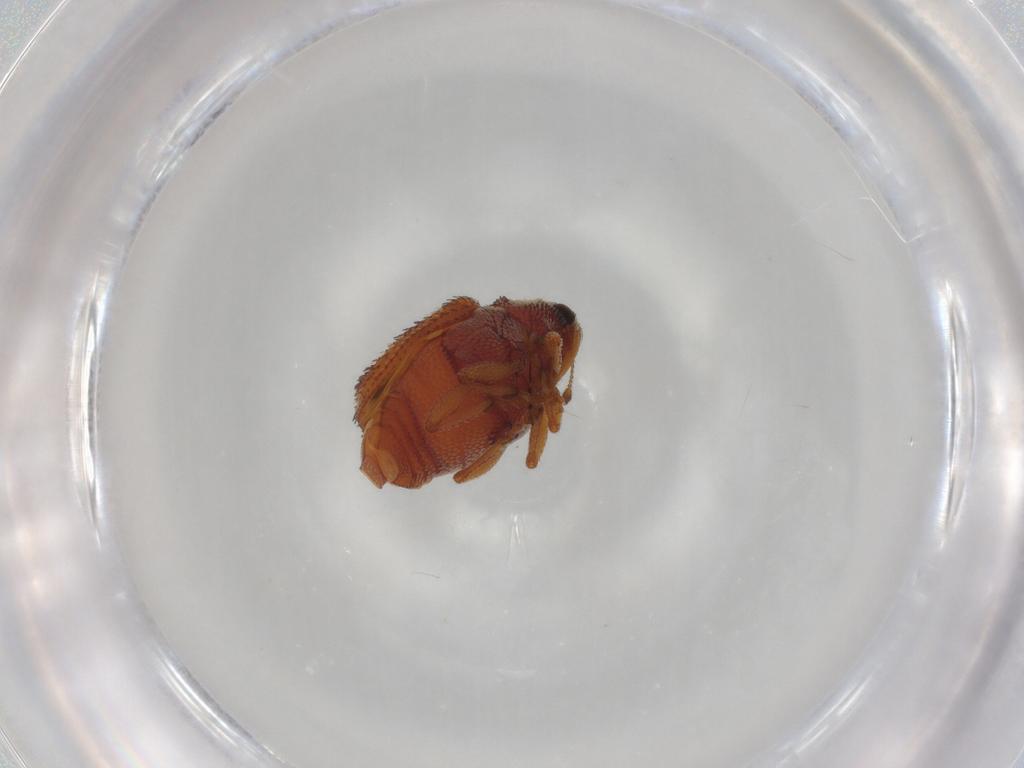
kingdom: Animalia
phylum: Arthropoda
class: Insecta
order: Coleoptera
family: Curculionidae
